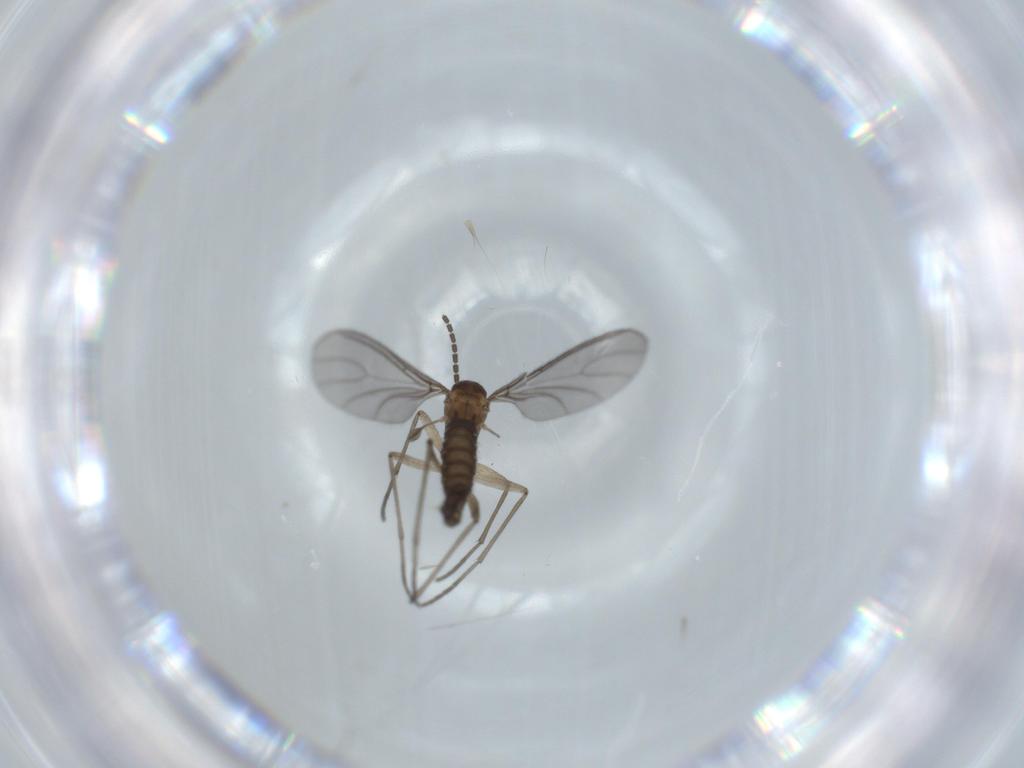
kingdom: Animalia
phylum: Arthropoda
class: Insecta
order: Diptera
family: Sciaridae
